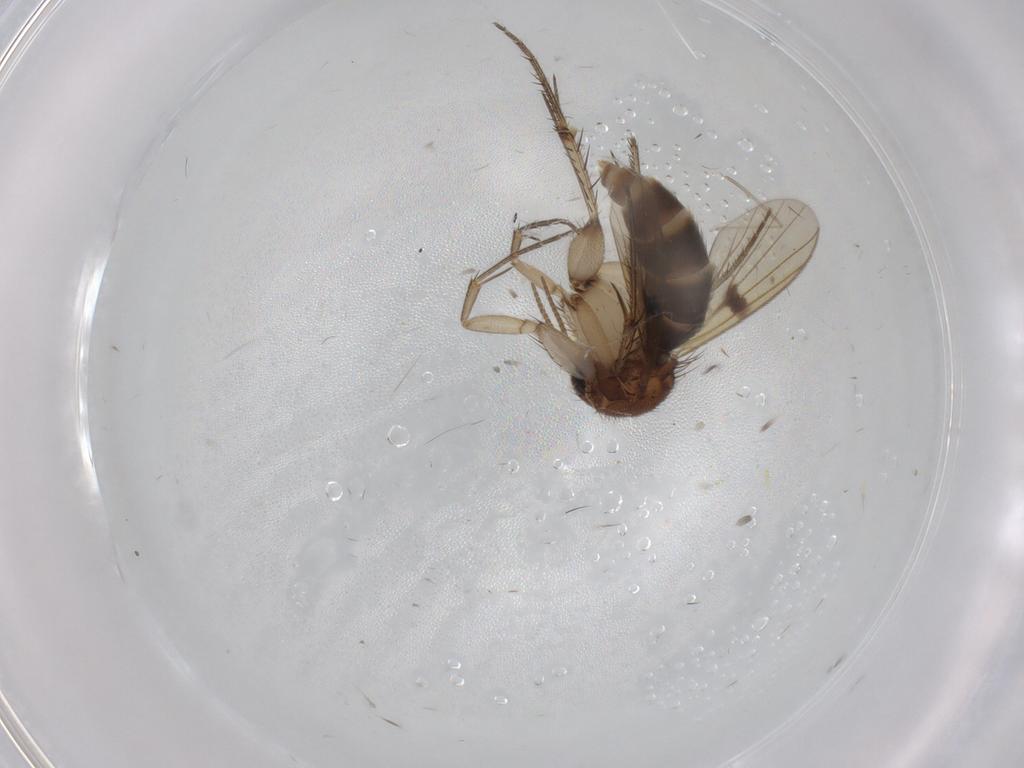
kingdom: Animalia
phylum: Arthropoda
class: Insecta
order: Diptera
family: Mycetophilidae
